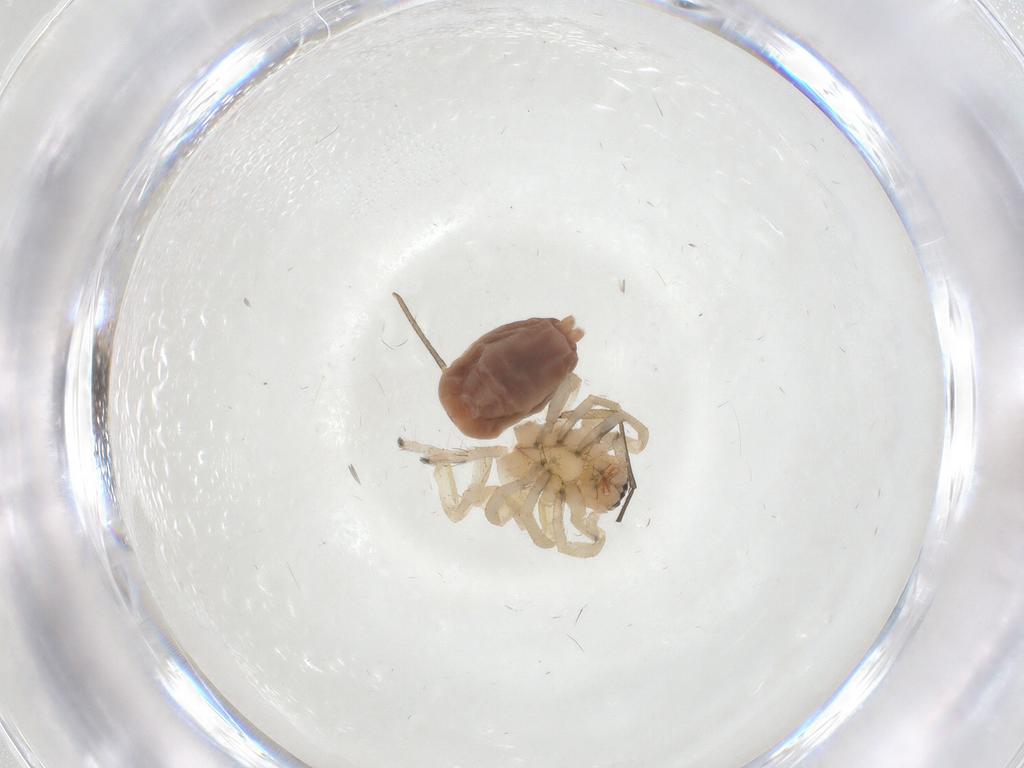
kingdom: Animalia
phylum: Arthropoda
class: Arachnida
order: Araneae
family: Clubionidae
